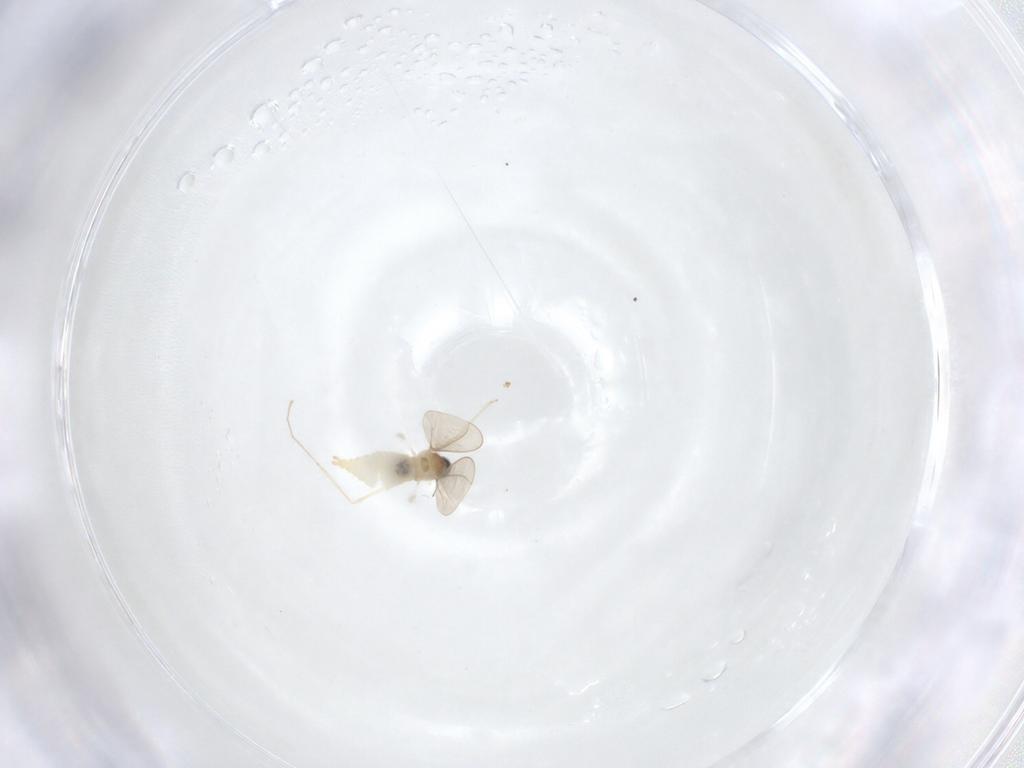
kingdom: Animalia
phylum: Arthropoda
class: Insecta
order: Diptera
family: Cecidomyiidae
